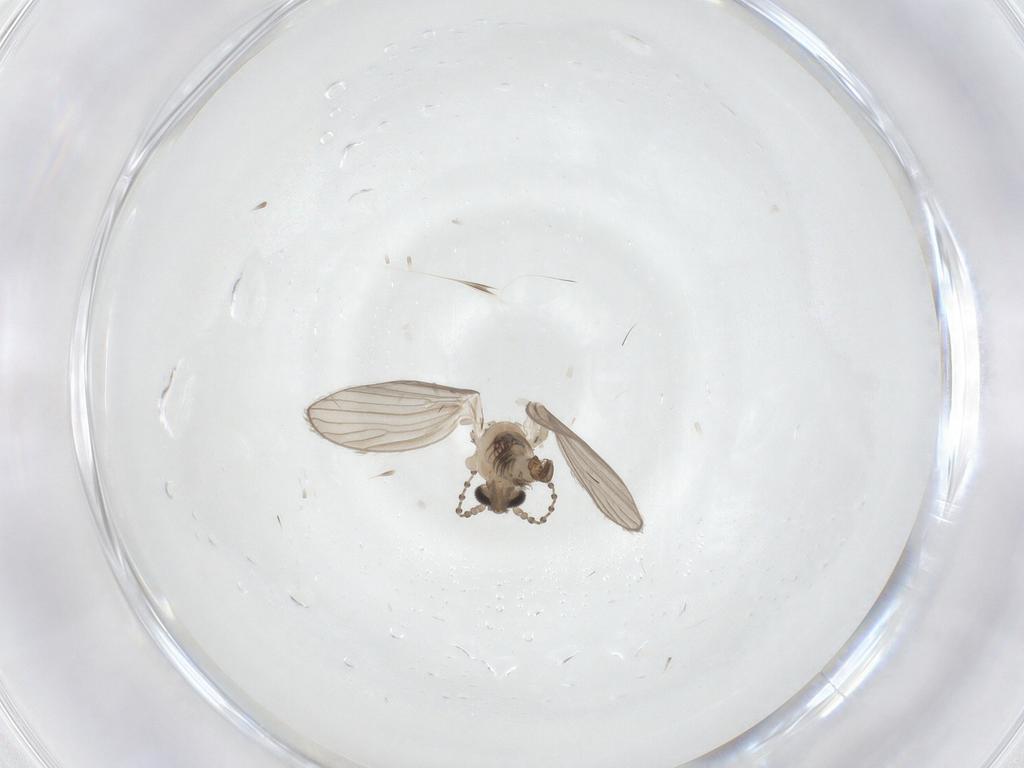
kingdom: Animalia
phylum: Arthropoda
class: Insecta
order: Diptera
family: Psychodidae
